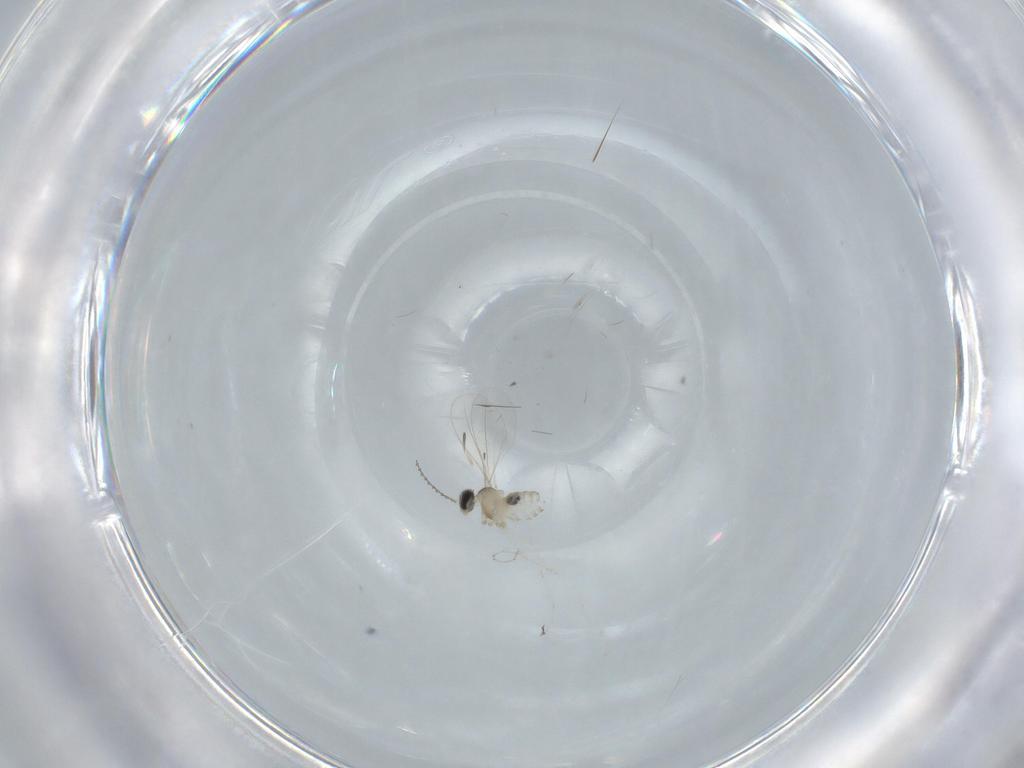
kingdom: Animalia
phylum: Arthropoda
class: Insecta
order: Diptera
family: Cecidomyiidae
